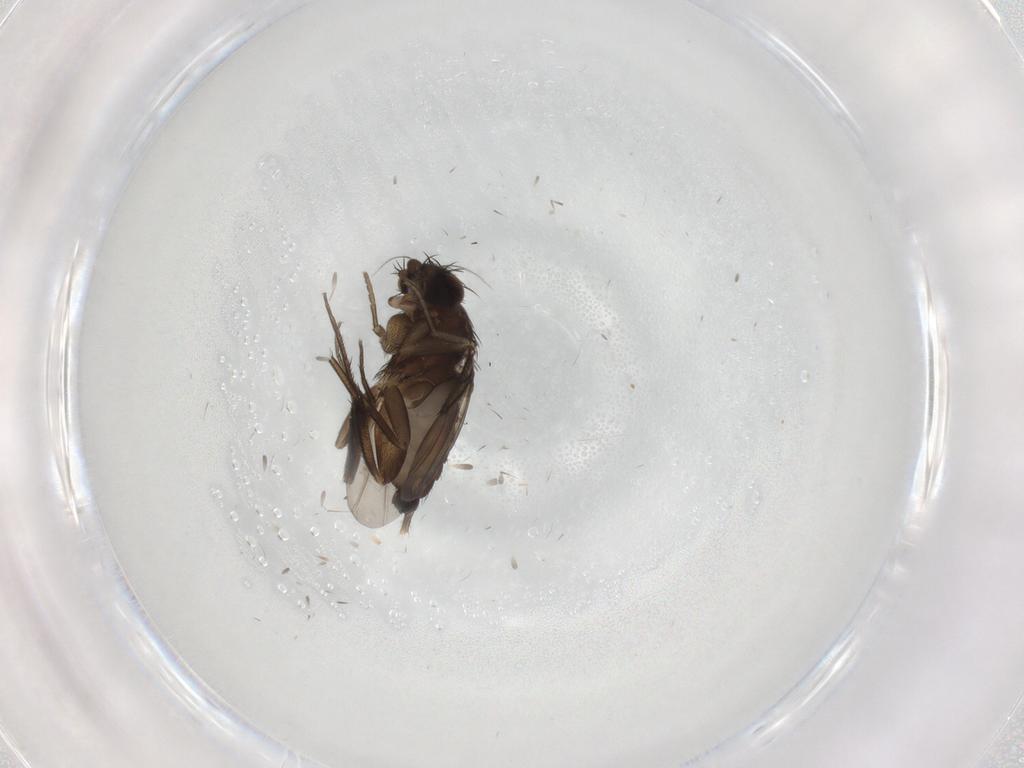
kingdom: Animalia
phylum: Arthropoda
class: Insecta
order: Diptera
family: Phoridae
